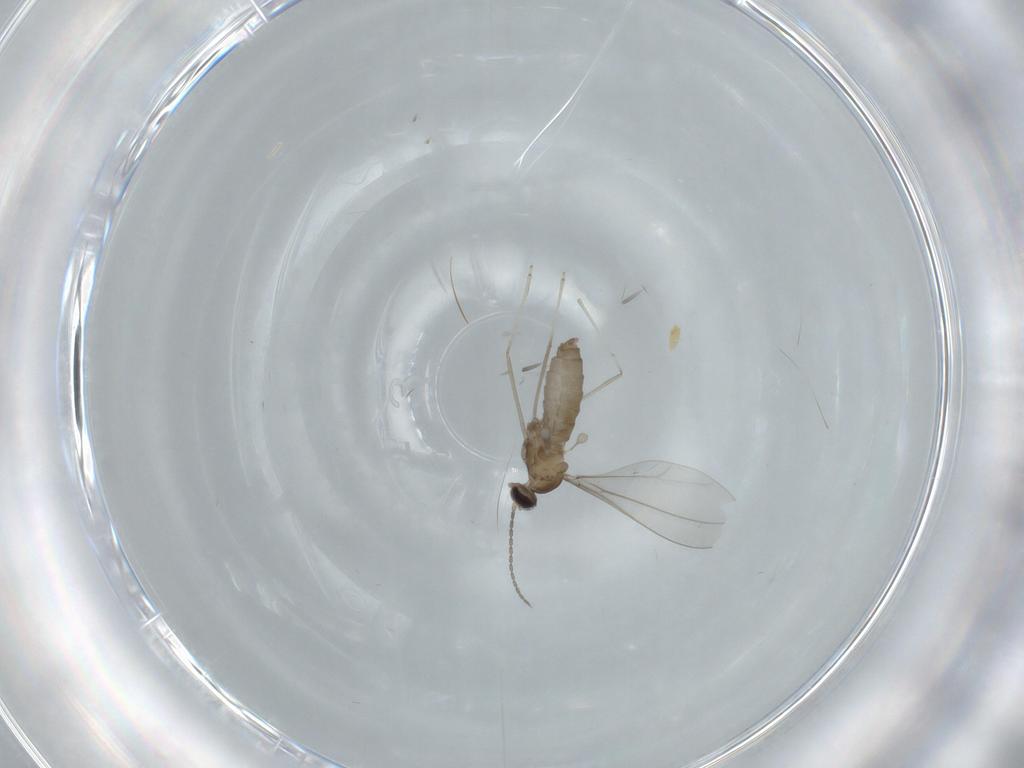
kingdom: Animalia
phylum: Arthropoda
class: Insecta
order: Diptera
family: Cecidomyiidae
